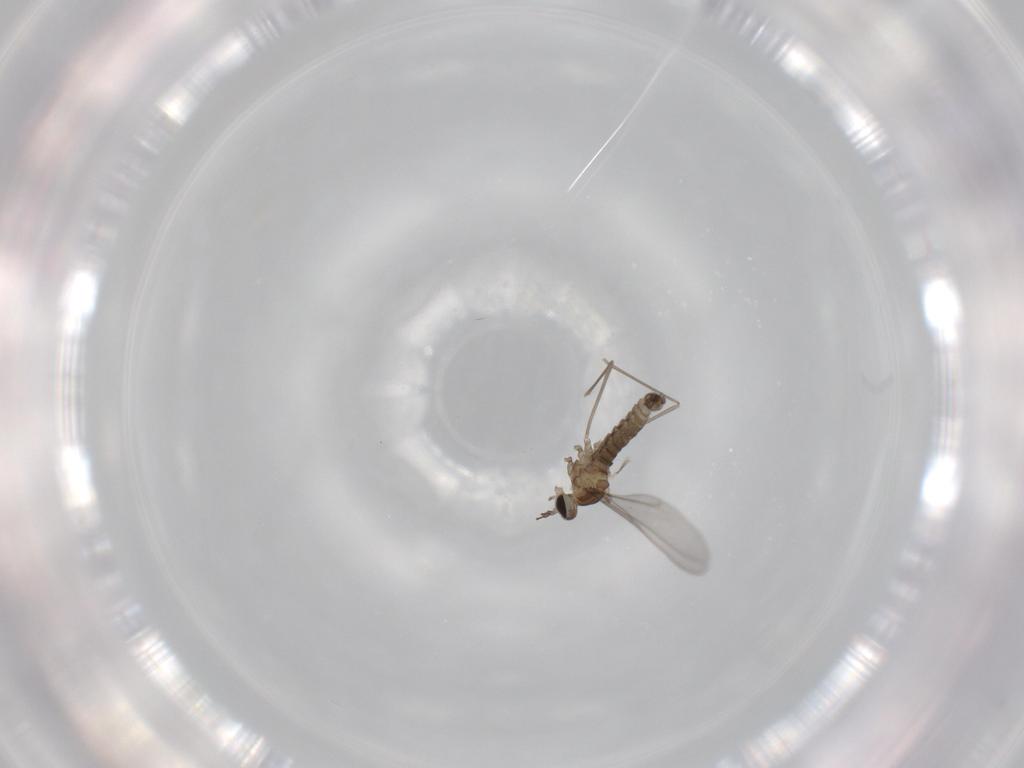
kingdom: Animalia
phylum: Arthropoda
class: Insecta
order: Diptera
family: Cecidomyiidae
